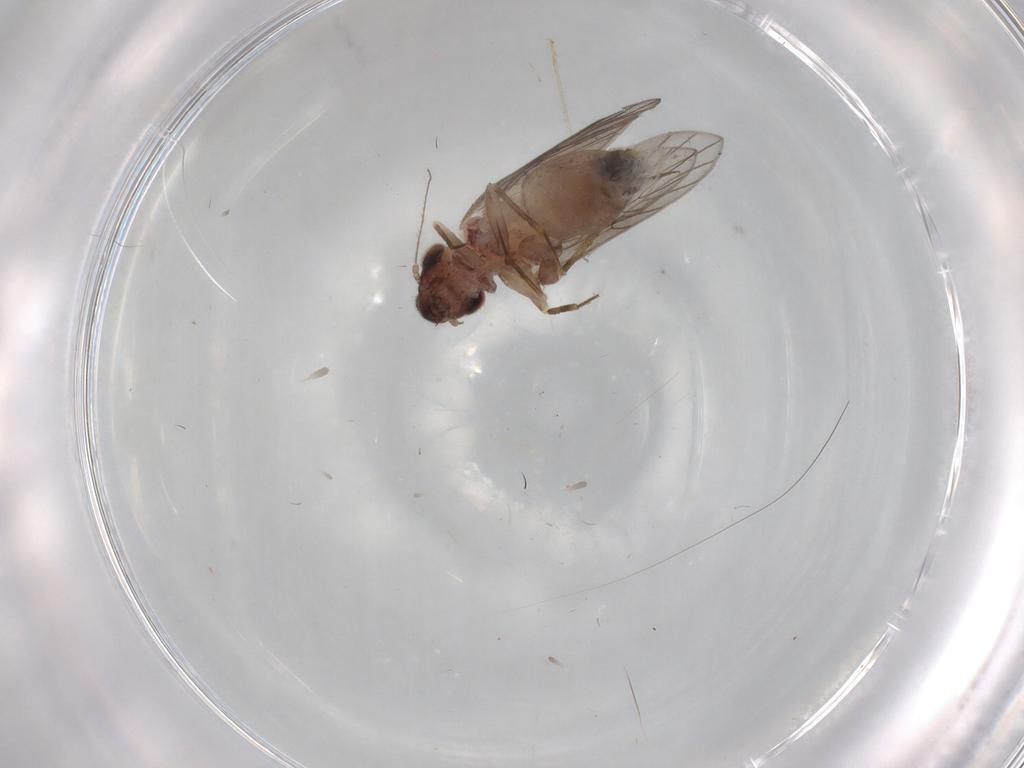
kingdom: Animalia
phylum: Arthropoda
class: Insecta
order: Psocodea
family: Lepidopsocidae
